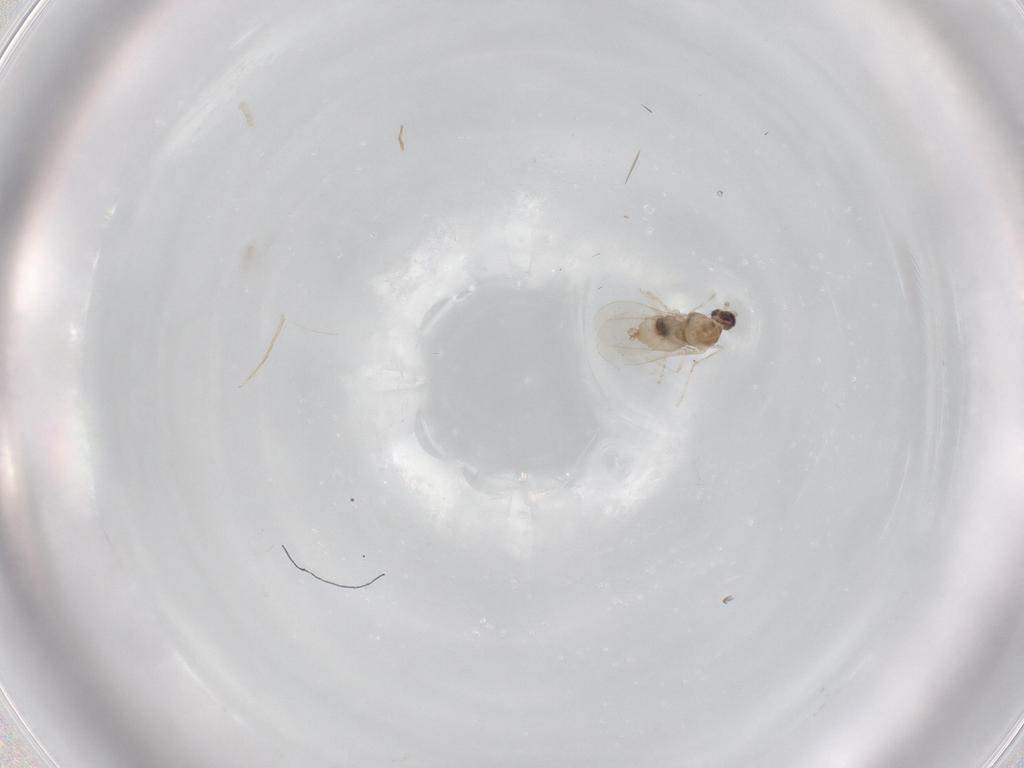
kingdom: Animalia
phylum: Arthropoda
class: Insecta
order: Diptera
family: Cecidomyiidae
